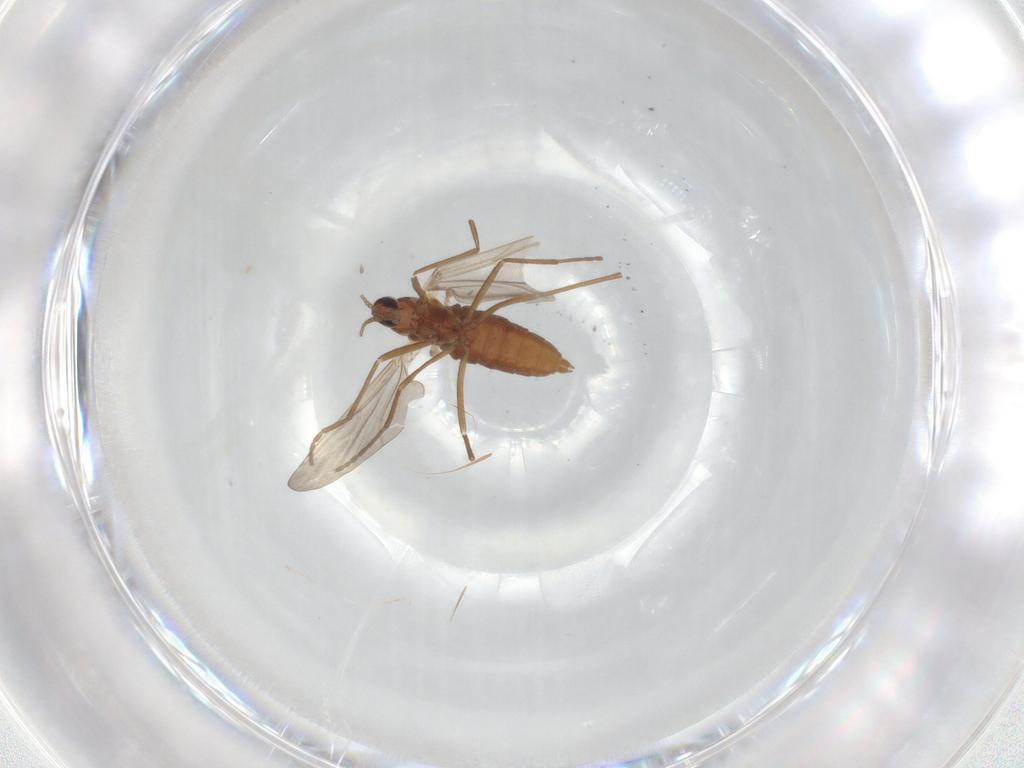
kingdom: Animalia
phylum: Arthropoda
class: Insecta
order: Diptera
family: Cecidomyiidae
